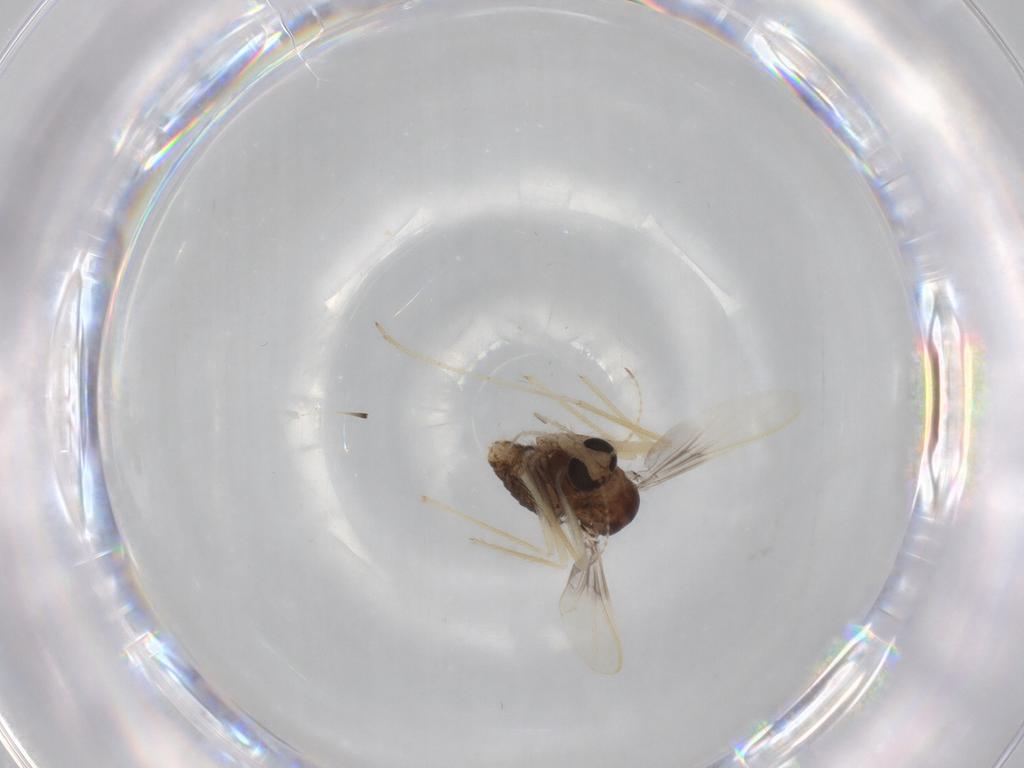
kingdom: Animalia
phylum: Arthropoda
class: Insecta
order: Diptera
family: Chironomidae
